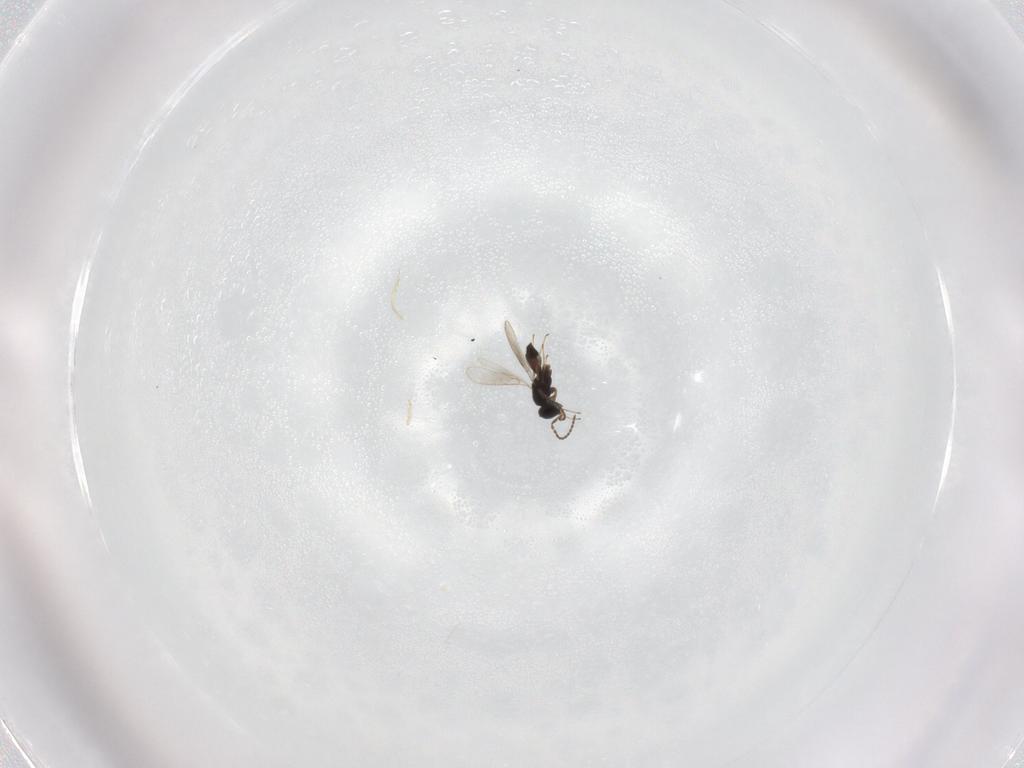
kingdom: Animalia
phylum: Arthropoda
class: Insecta
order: Hymenoptera
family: Scelionidae
